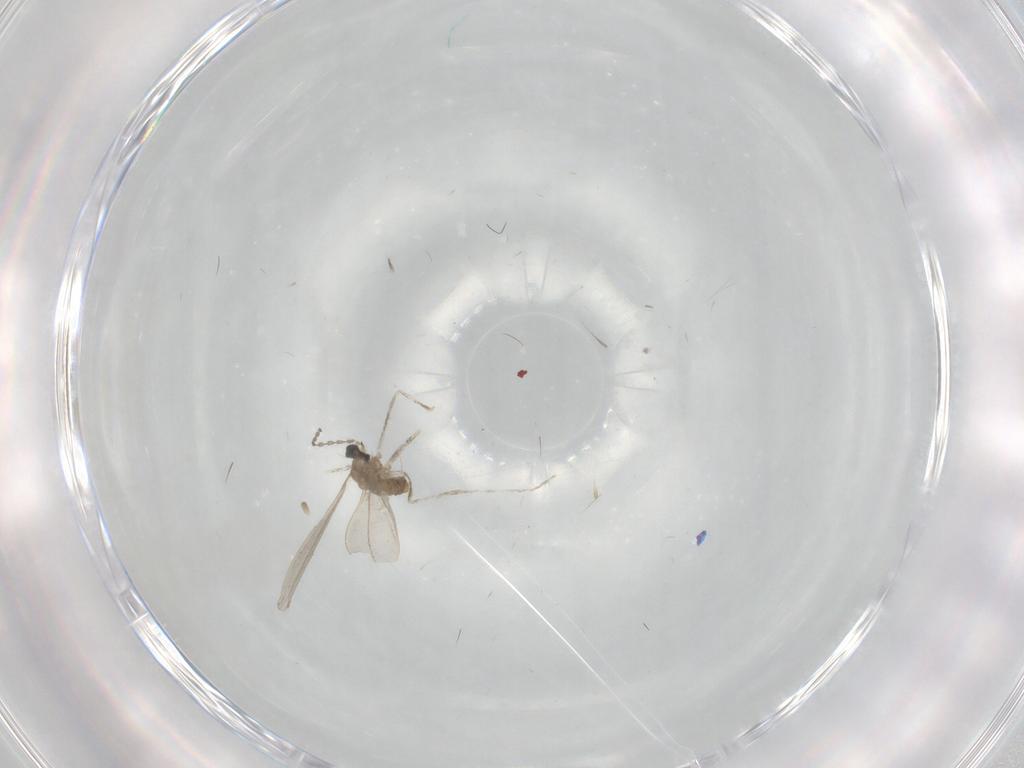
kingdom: Animalia
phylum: Arthropoda
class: Insecta
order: Diptera
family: Cecidomyiidae
